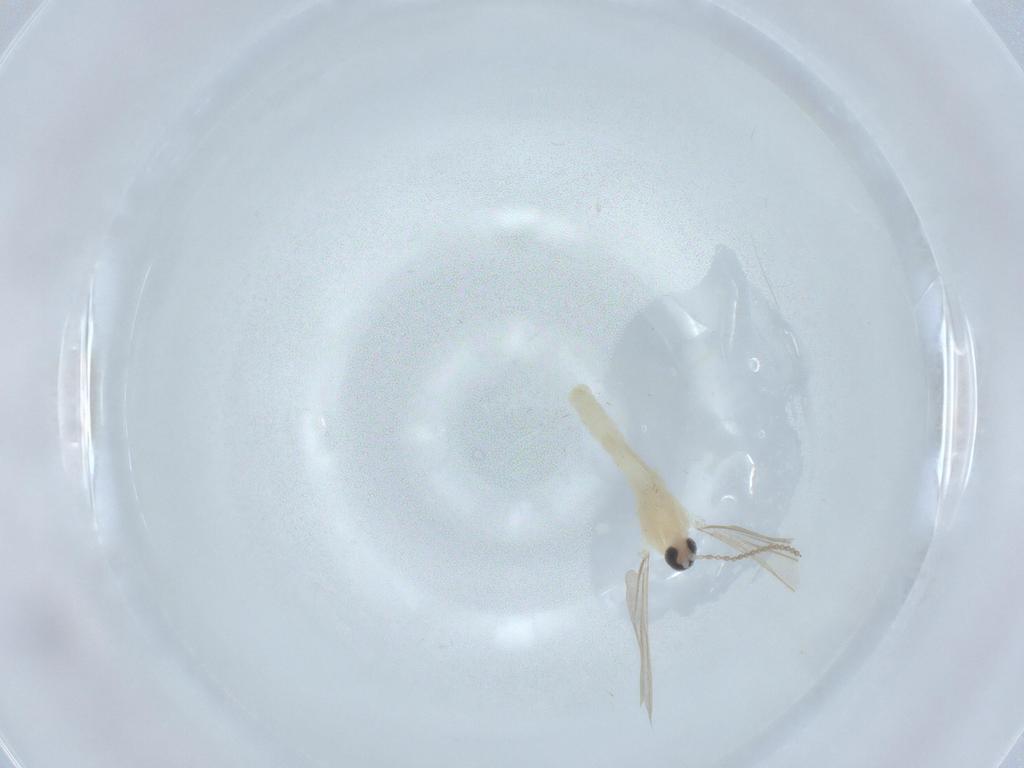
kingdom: Animalia
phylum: Arthropoda
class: Insecta
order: Diptera
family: Cecidomyiidae
